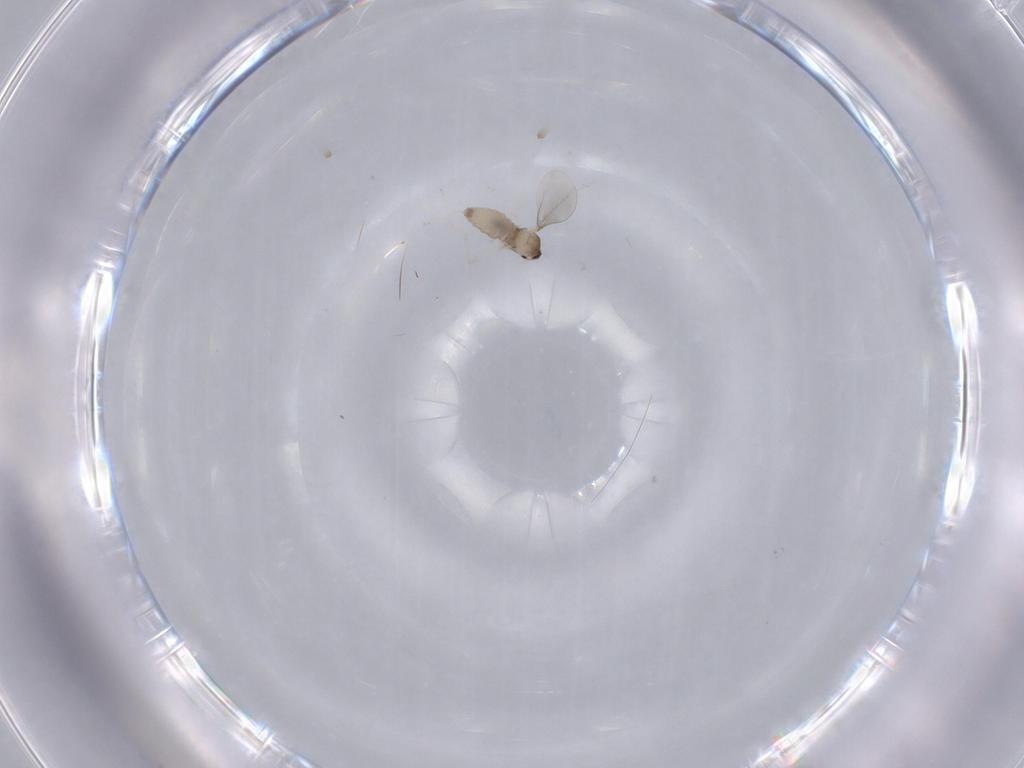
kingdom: Animalia
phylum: Arthropoda
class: Insecta
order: Diptera
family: Cecidomyiidae
